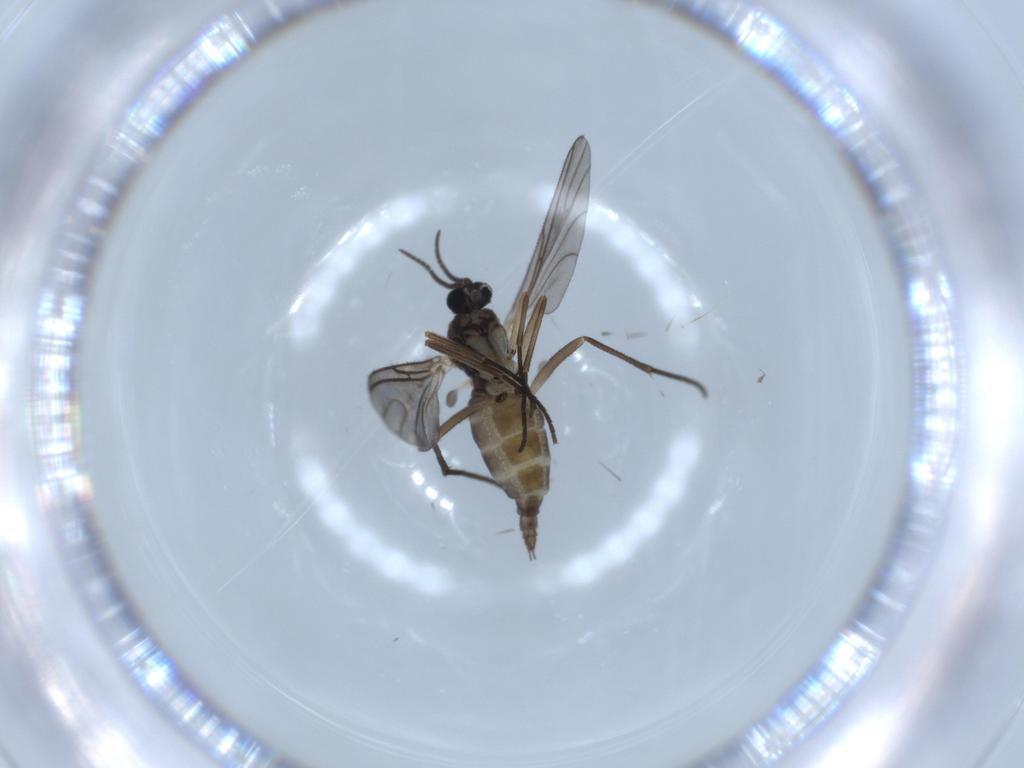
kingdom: Animalia
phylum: Arthropoda
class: Insecta
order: Diptera
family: Sciaridae
